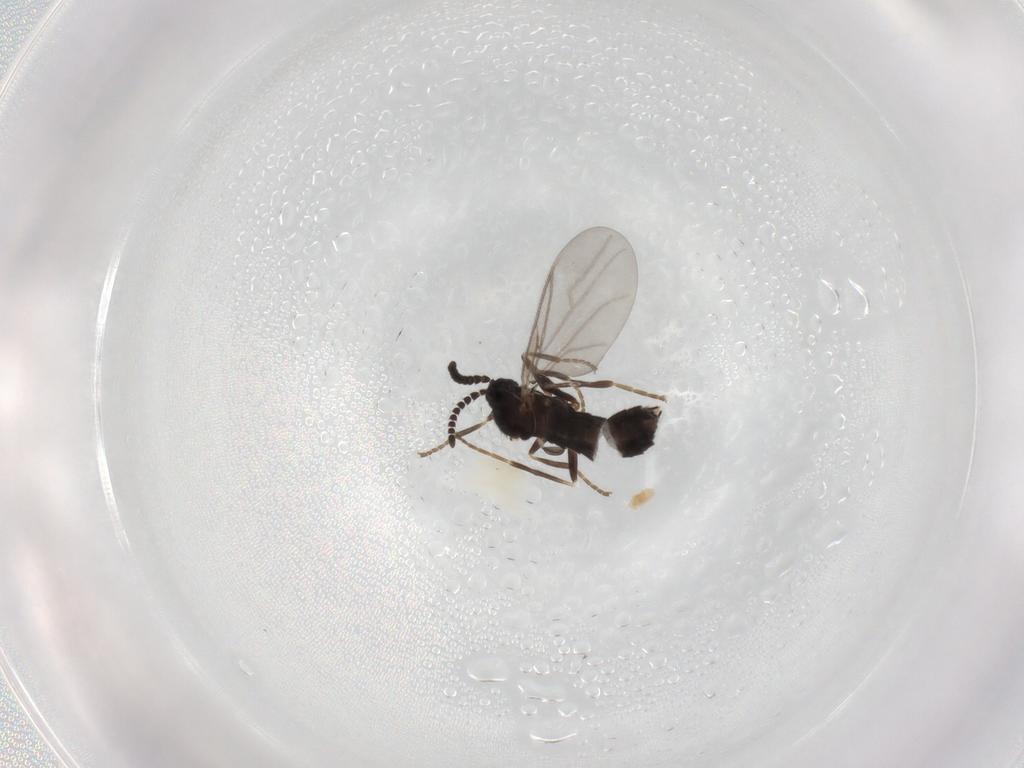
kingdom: Animalia
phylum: Arthropoda
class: Insecta
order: Diptera
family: Scatopsidae
